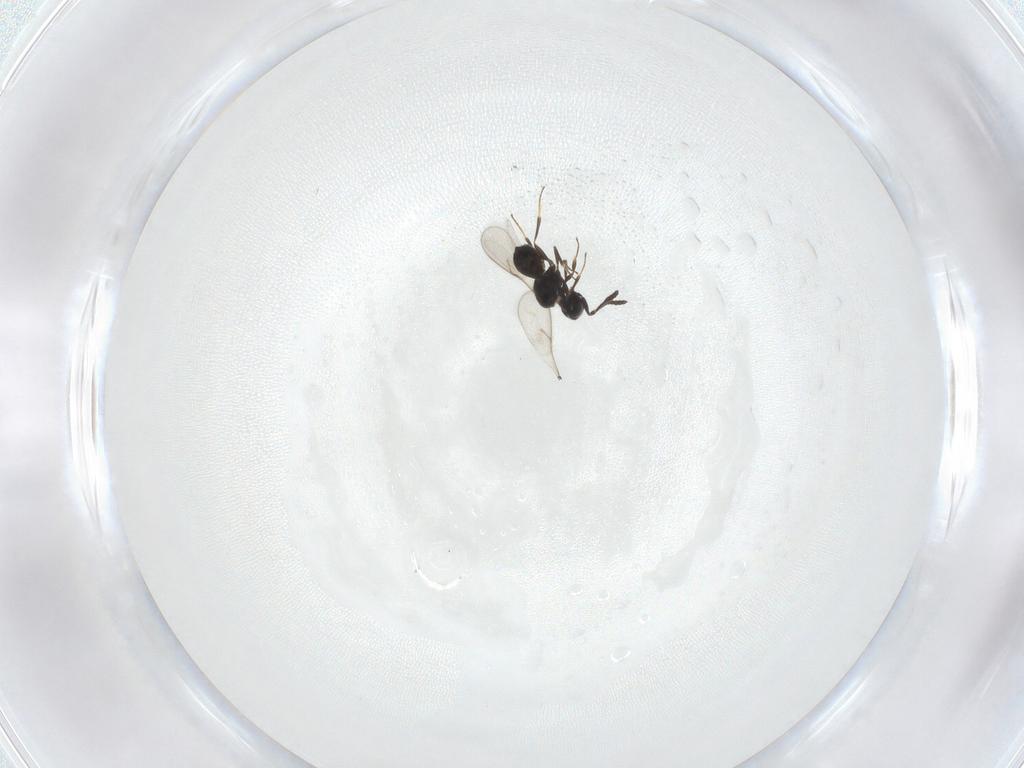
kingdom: Animalia
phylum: Arthropoda
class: Insecta
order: Hymenoptera
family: Scelionidae
